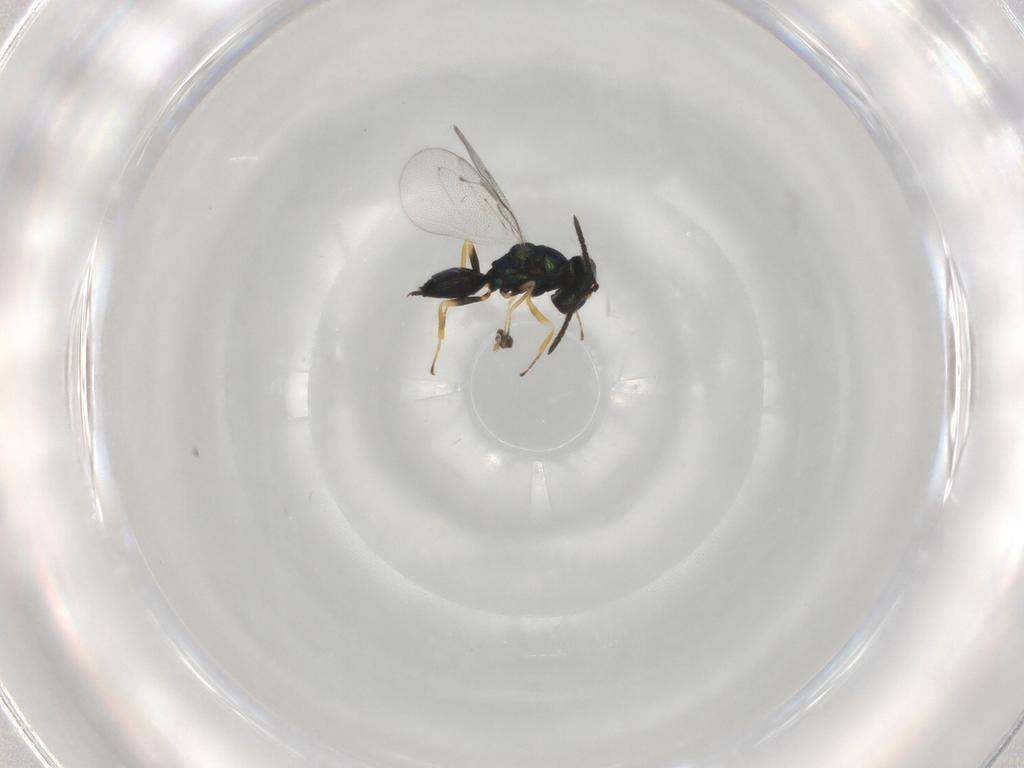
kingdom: Animalia
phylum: Arthropoda
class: Insecta
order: Hymenoptera
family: Pteromalidae
